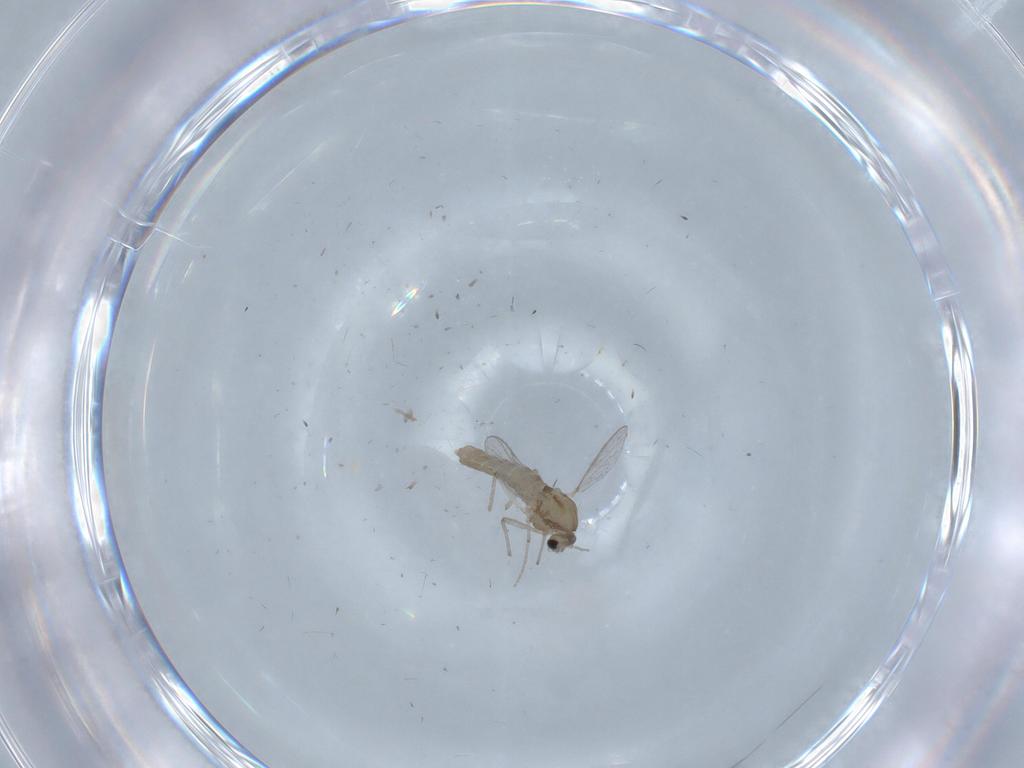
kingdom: Animalia
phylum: Arthropoda
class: Insecta
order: Diptera
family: Chironomidae
